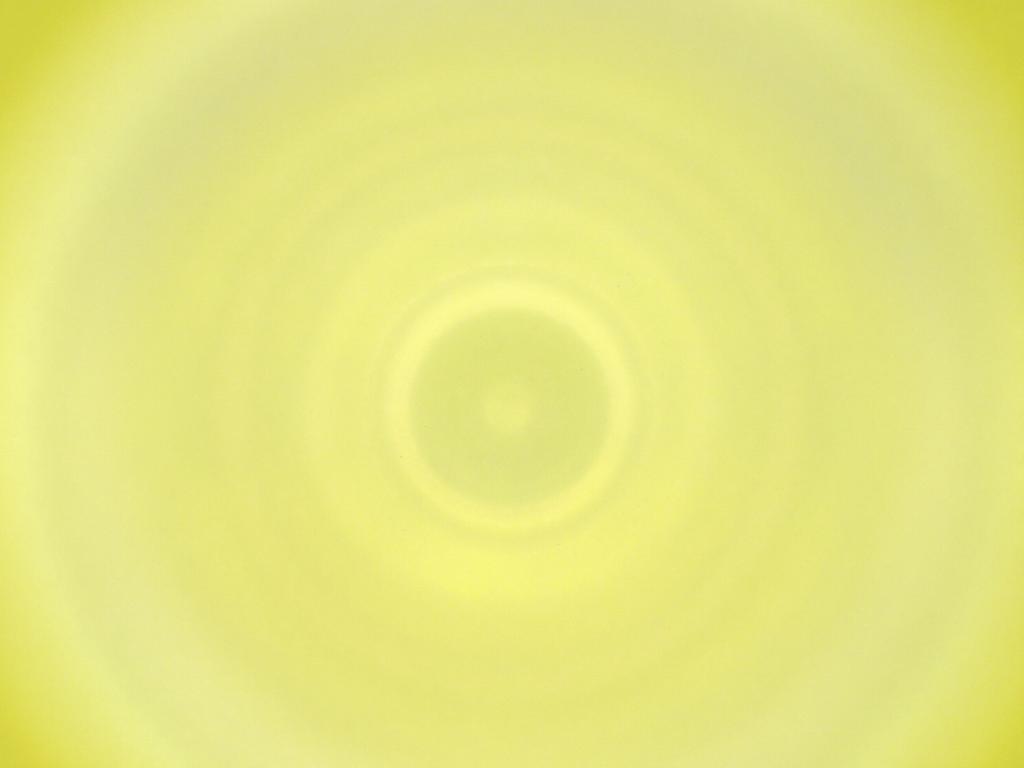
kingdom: Animalia
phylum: Arthropoda
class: Insecta
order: Diptera
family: Cecidomyiidae
